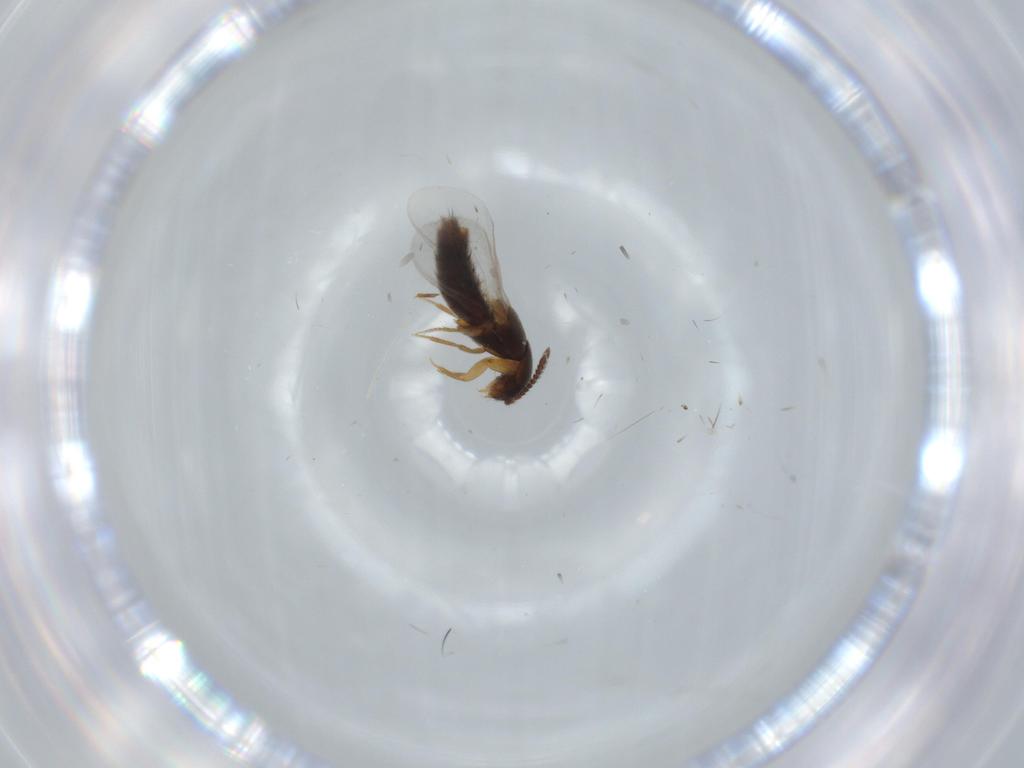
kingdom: Animalia
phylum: Arthropoda
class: Insecta
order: Coleoptera
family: Staphylinidae
